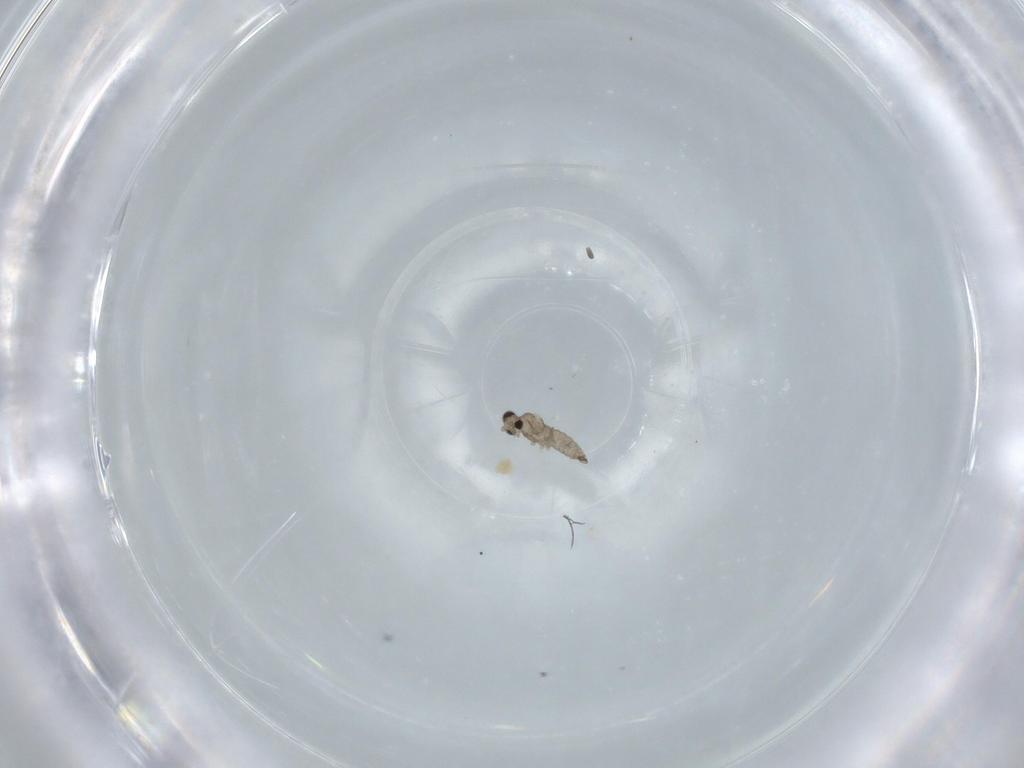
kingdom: Animalia
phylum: Arthropoda
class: Insecta
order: Diptera
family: Cecidomyiidae
